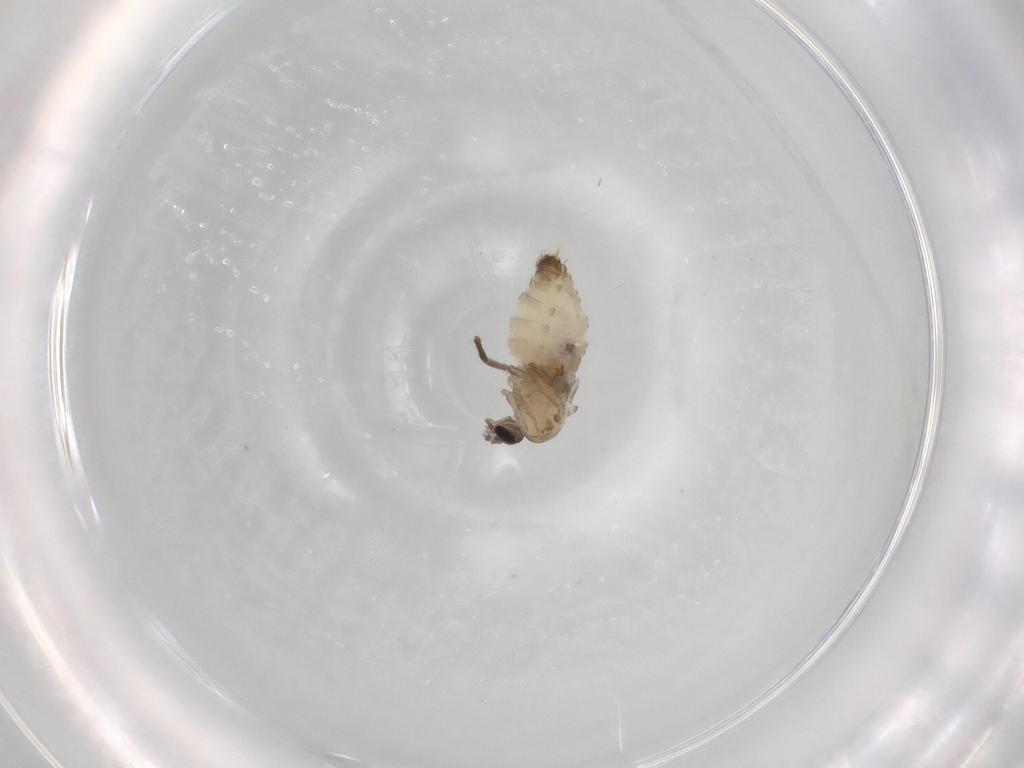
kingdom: Animalia
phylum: Arthropoda
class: Insecta
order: Diptera
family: Psychodidae
